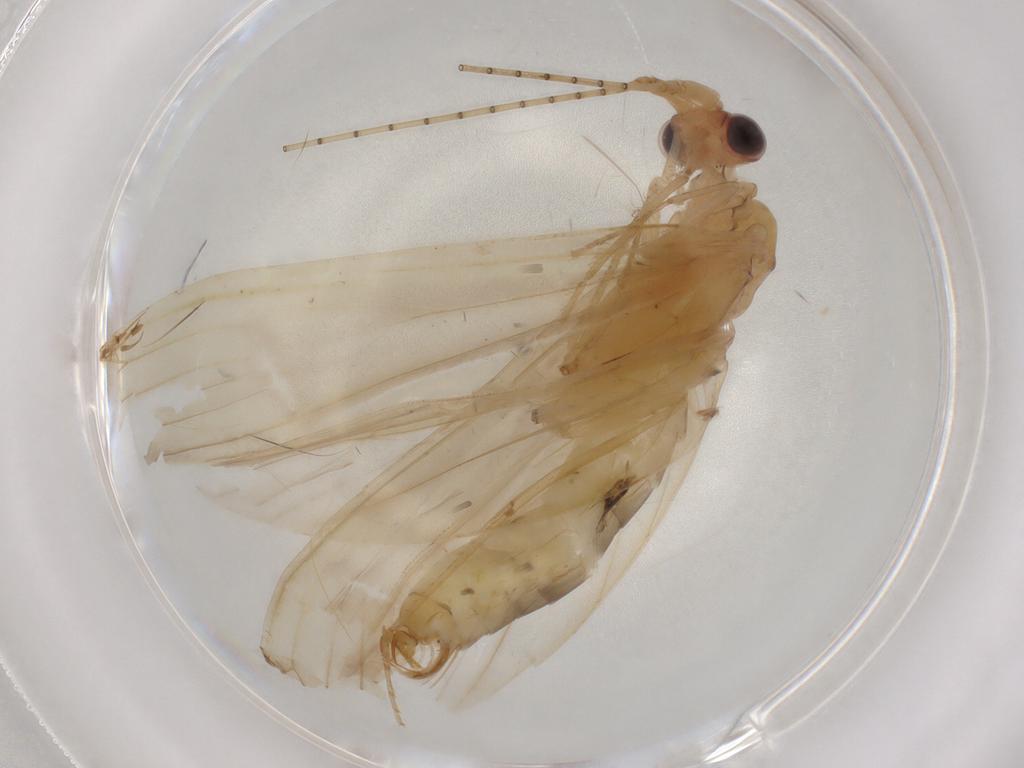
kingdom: Animalia
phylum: Arthropoda
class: Insecta
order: Trichoptera
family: Leptoceridae
